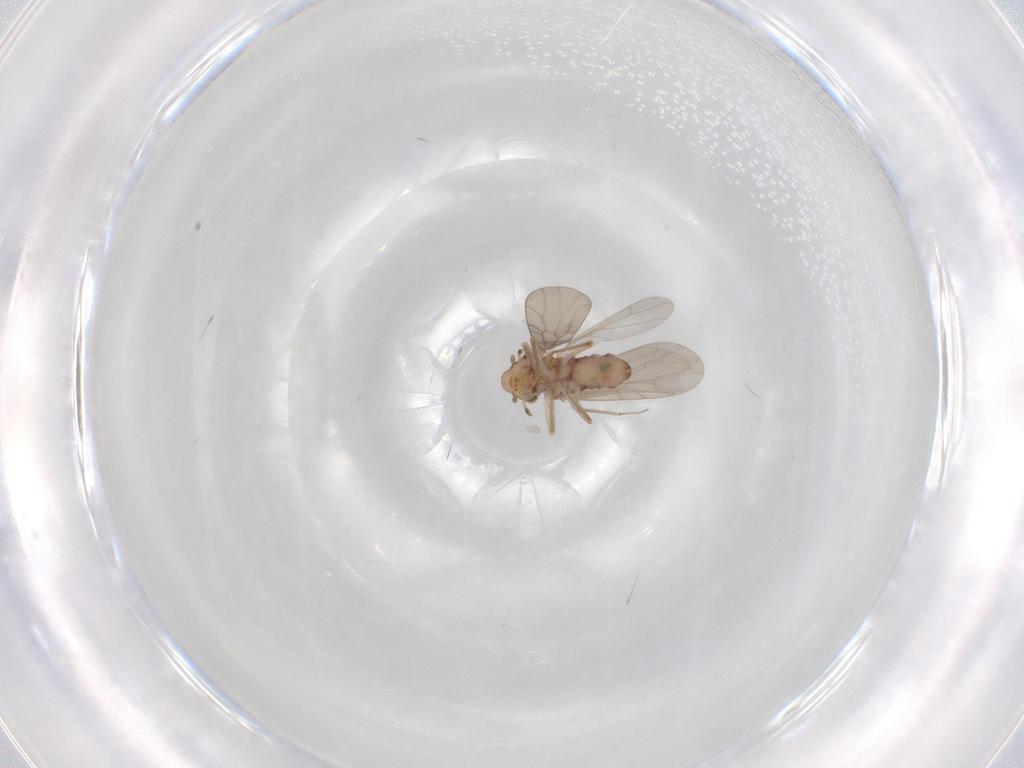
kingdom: Animalia
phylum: Arthropoda
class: Insecta
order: Psocodea
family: Lepidopsocidae
